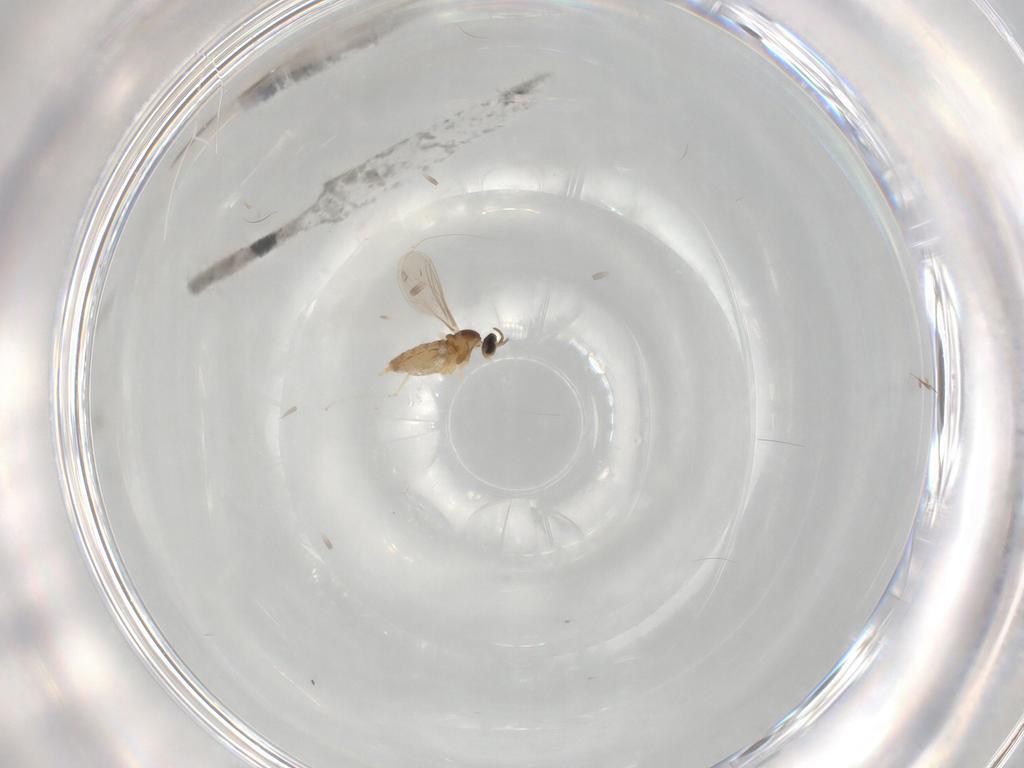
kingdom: Animalia
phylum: Arthropoda
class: Insecta
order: Diptera
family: Cecidomyiidae
